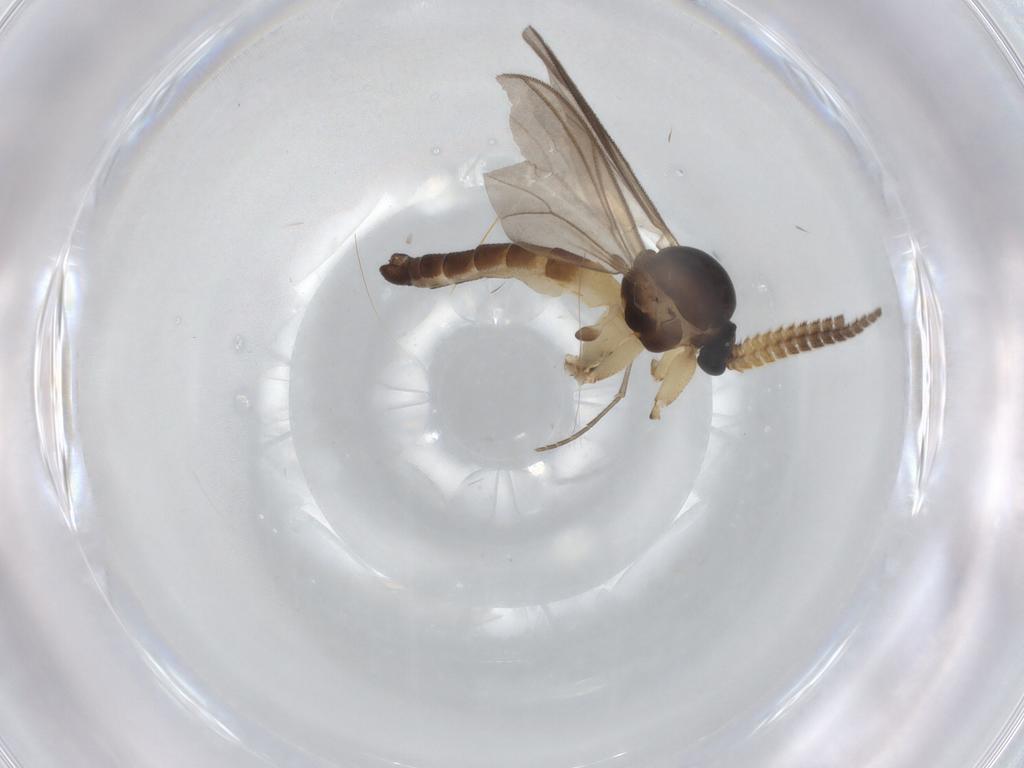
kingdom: Animalia
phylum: Arthropoda
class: Insecta
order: Diptera
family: Mycetophilidae
